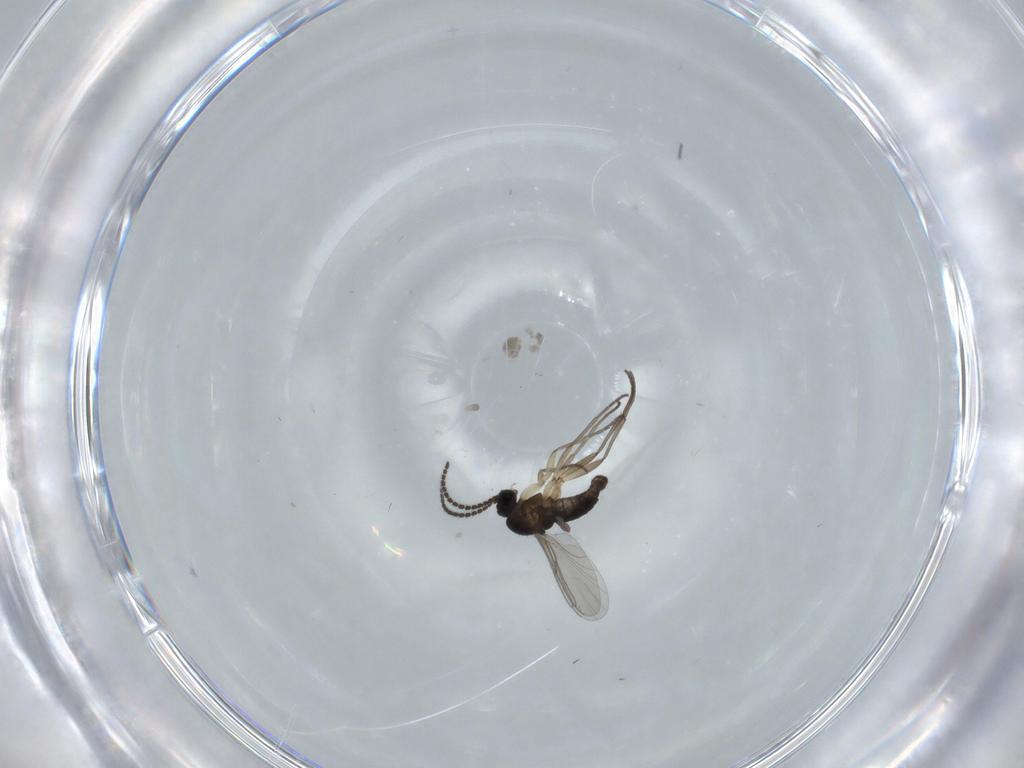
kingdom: Animalia
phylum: Arthropoda
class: Insecta
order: Diptera
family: Sciaridae
